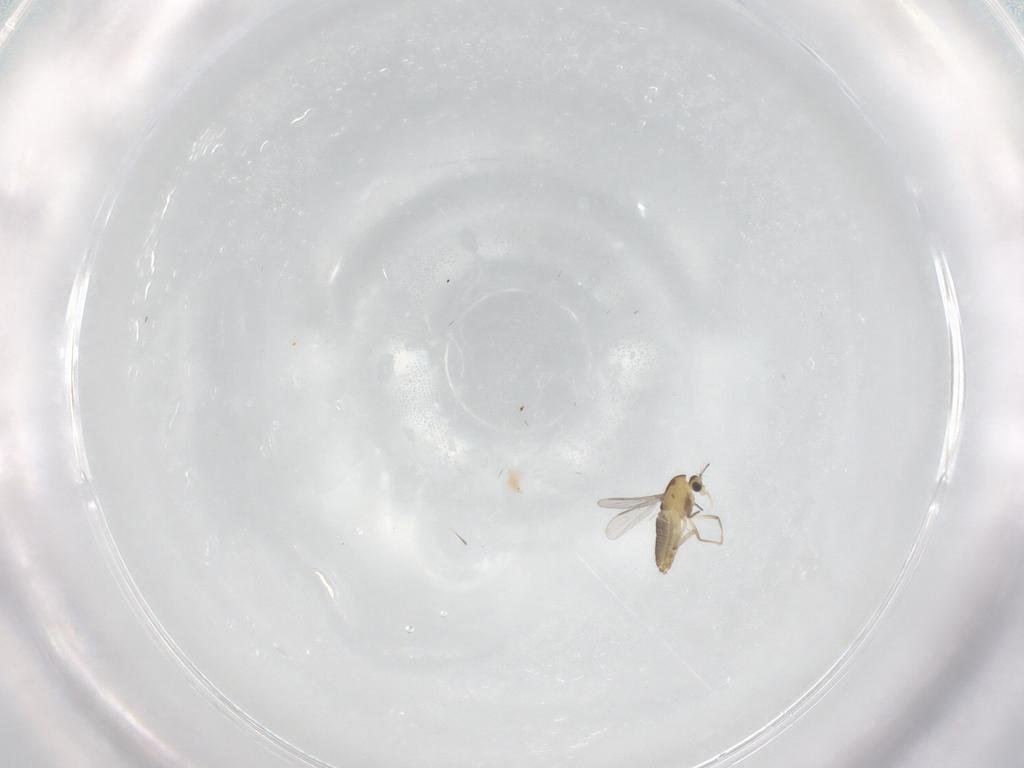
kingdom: Animalia
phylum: Arthropoda
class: Insecta
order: Diptera
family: Chironomidae
